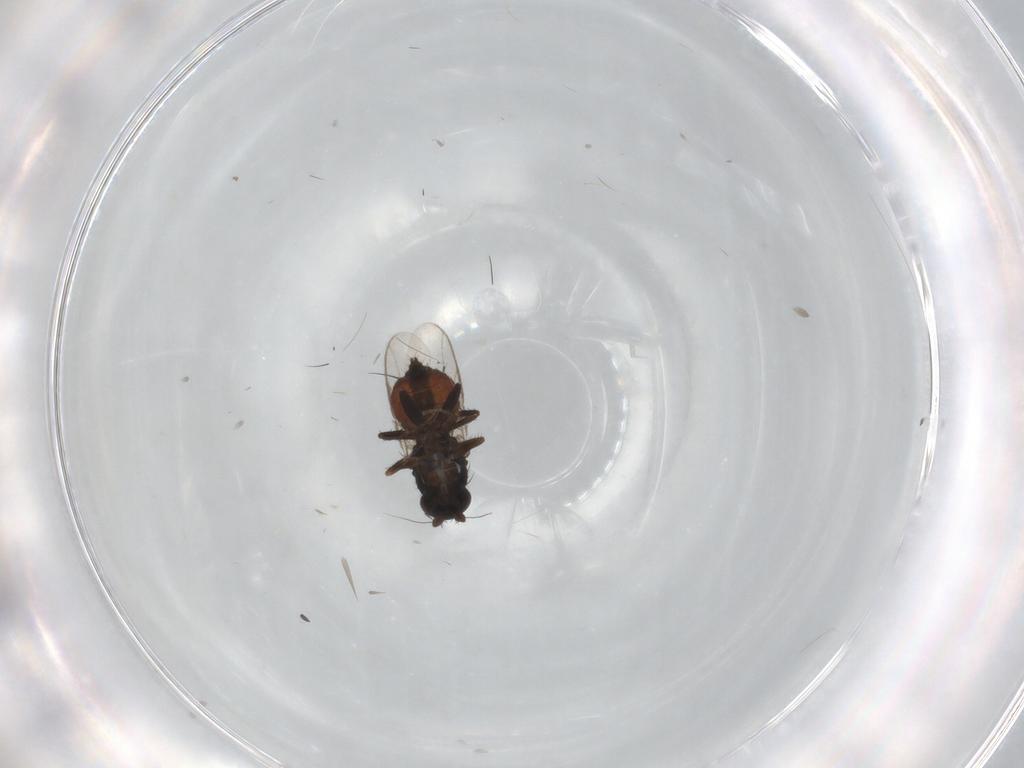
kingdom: Animalia
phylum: Arthropoda
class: Insecta
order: Diptera
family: Sphaeroceridae
